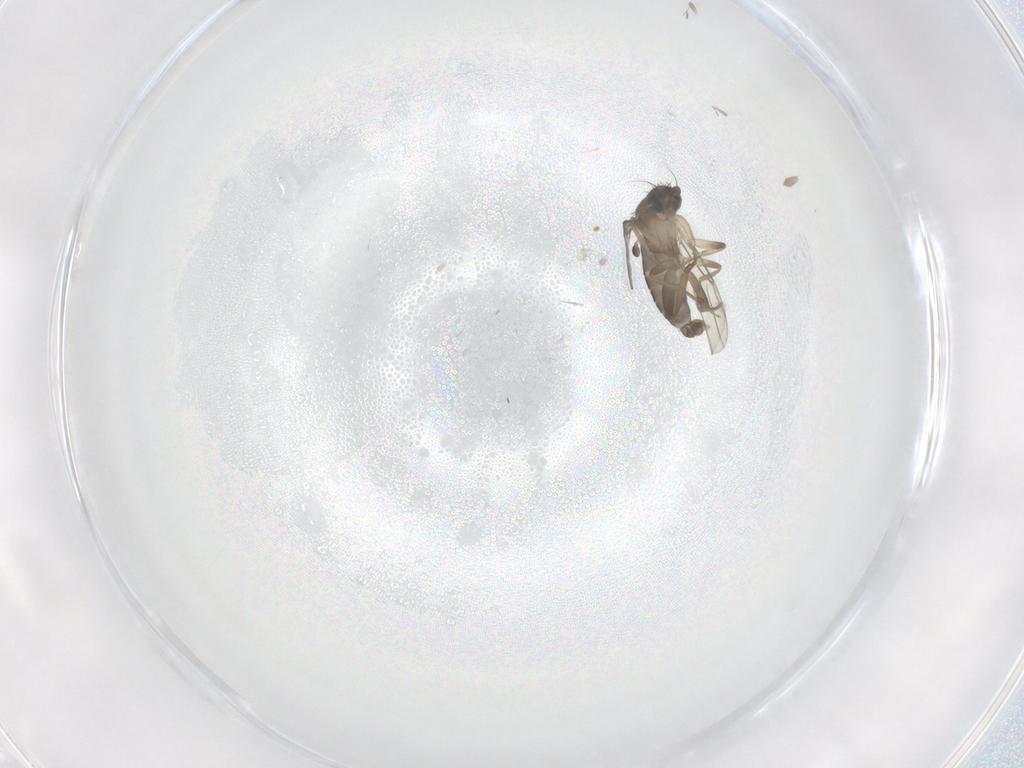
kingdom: Animalia
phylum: Arthropoda
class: Insecta
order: Diptera
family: Phoridae
